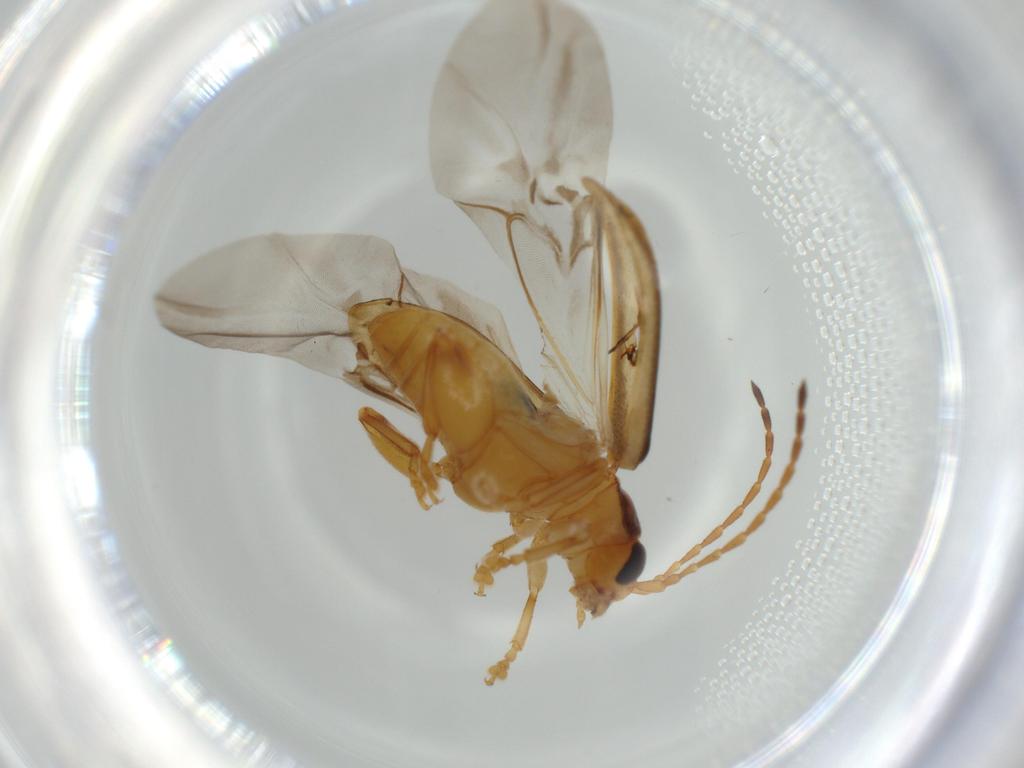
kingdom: Animalia
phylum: Arthropoda
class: Insecta
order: Coleoptera
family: Chrysomelidae
